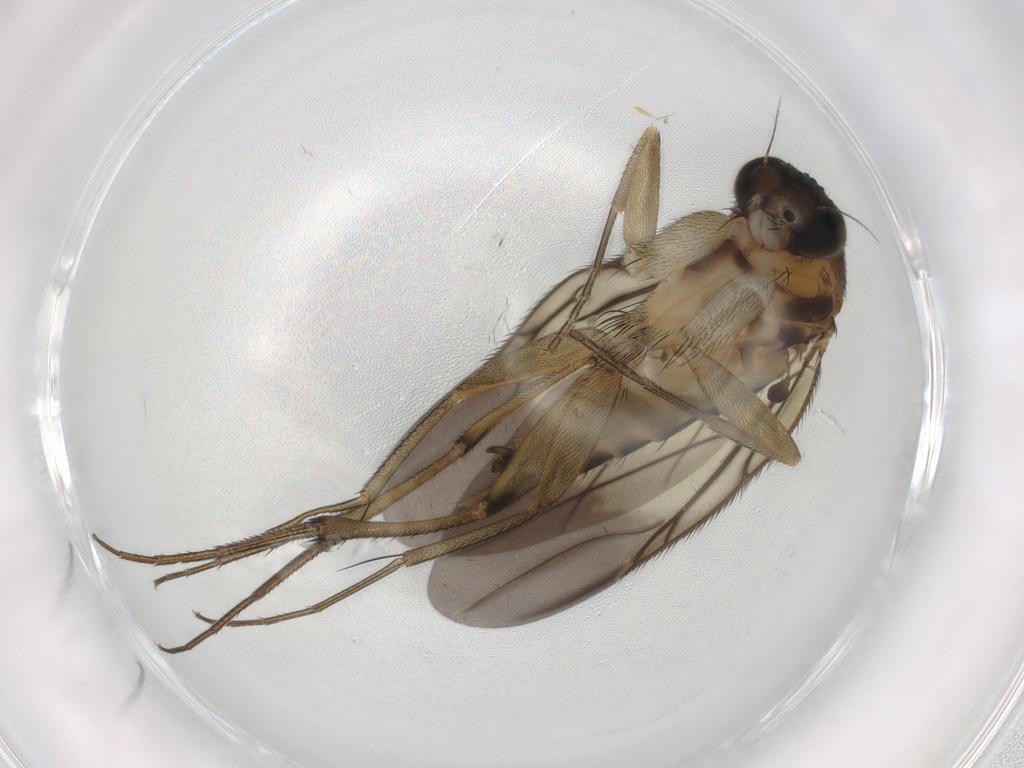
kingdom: Animalia
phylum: Arthropoda
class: Insecta
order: Diptera
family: Phoridae
